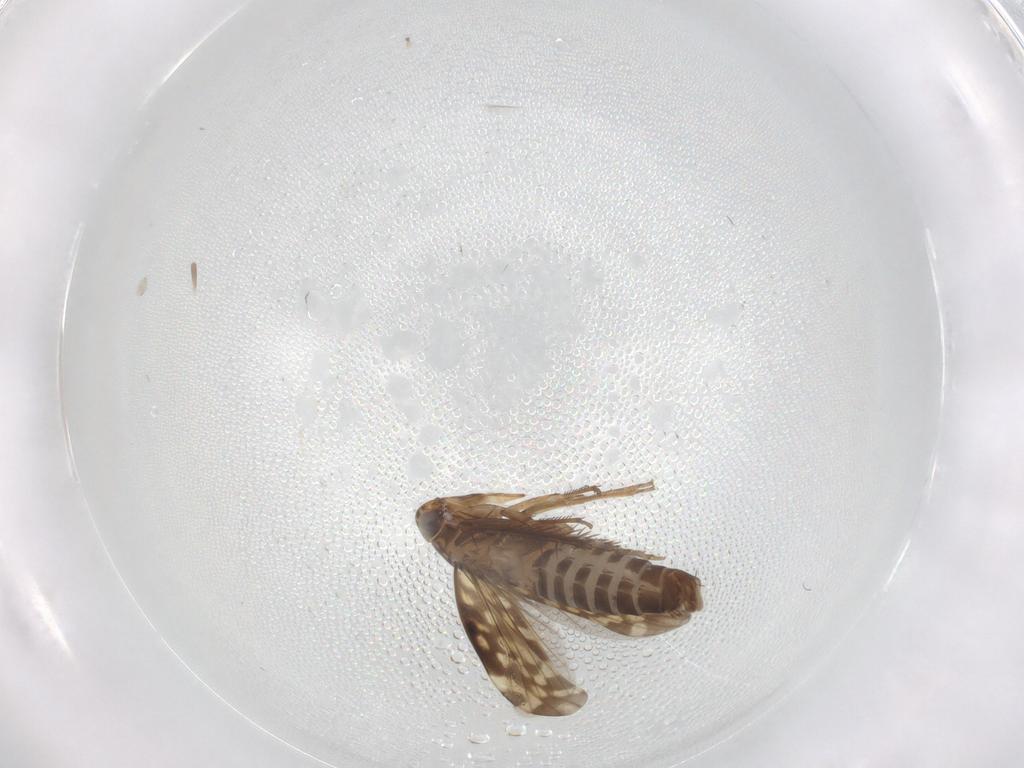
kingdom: Animalia
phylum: Arthropoda
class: Insecta
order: Hemiptera
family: Cicadellidae
